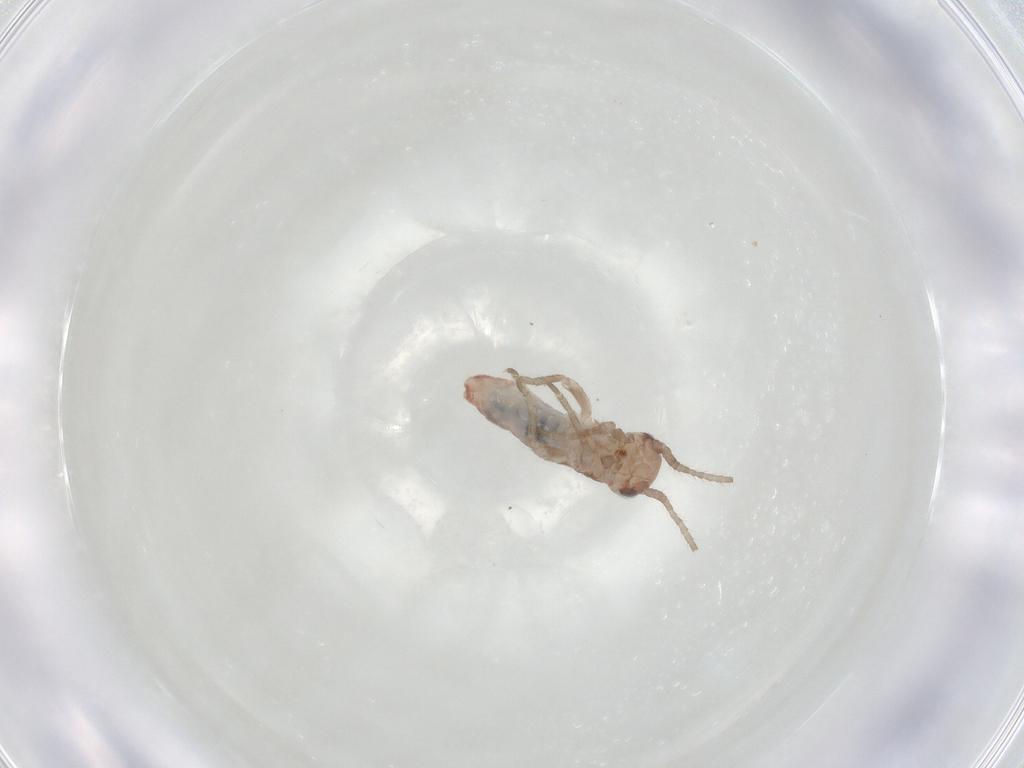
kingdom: Animalia
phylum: Arthropoda
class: Insecta
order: Orthoptera
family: Gryllidae
